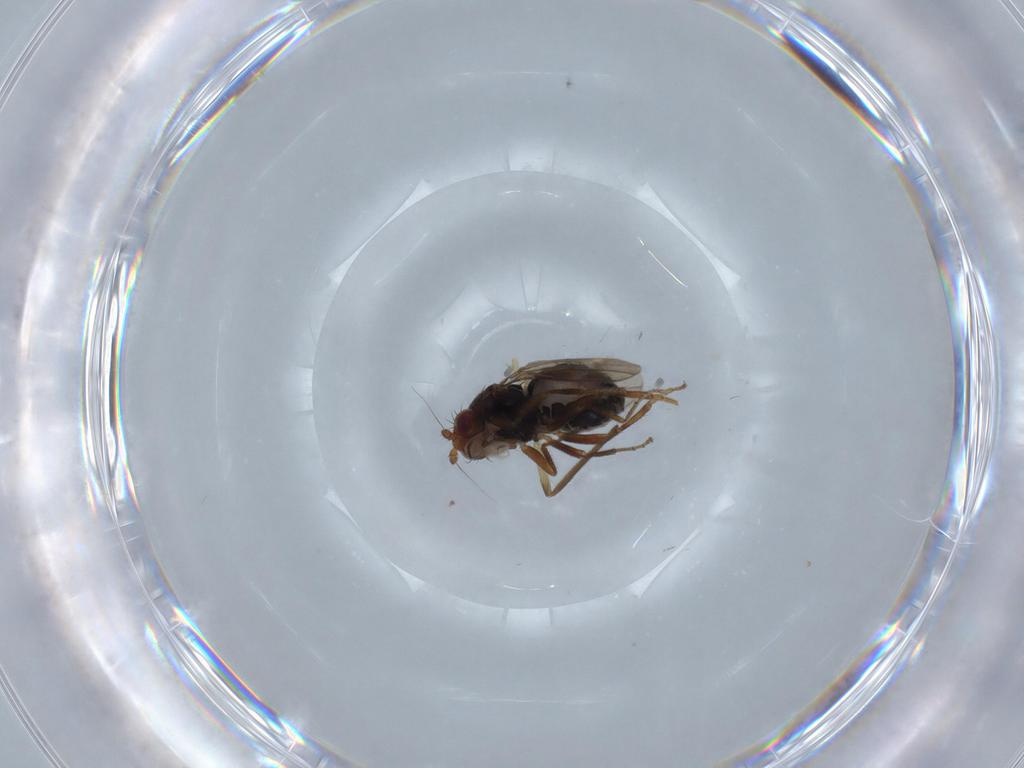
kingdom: Animalia
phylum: Arthropoda
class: Insecta
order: Diptera
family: Sphaeroceridae
